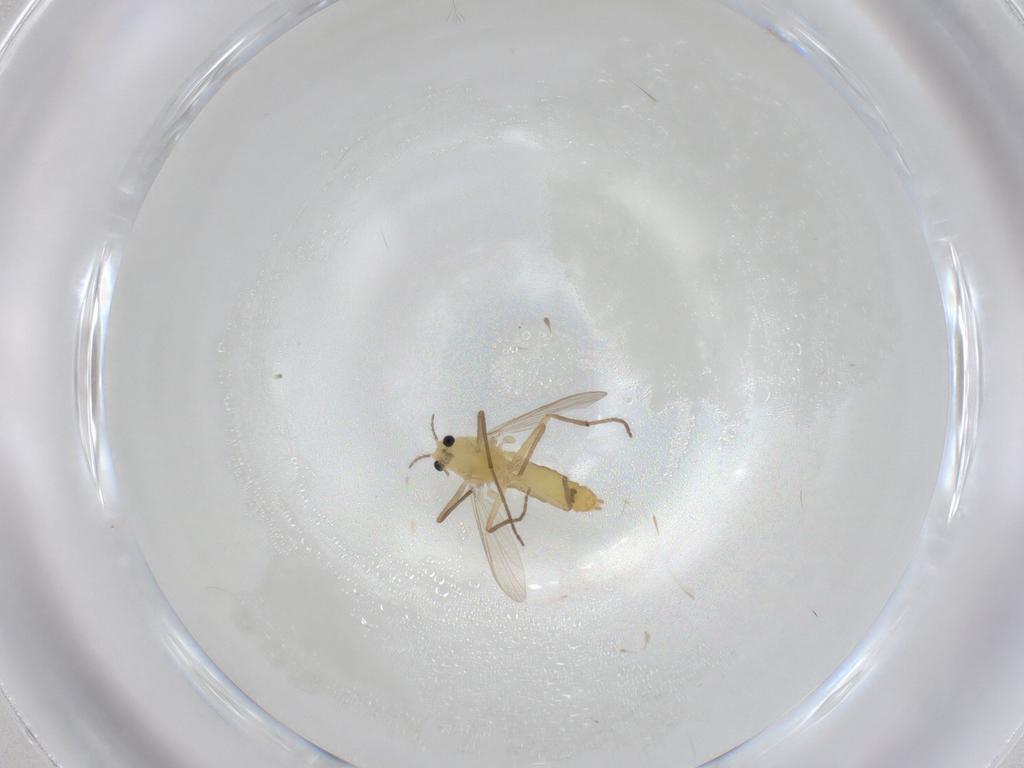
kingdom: Animalia
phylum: Arthropoda
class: Insecta
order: Diptera
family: Chironomidae
